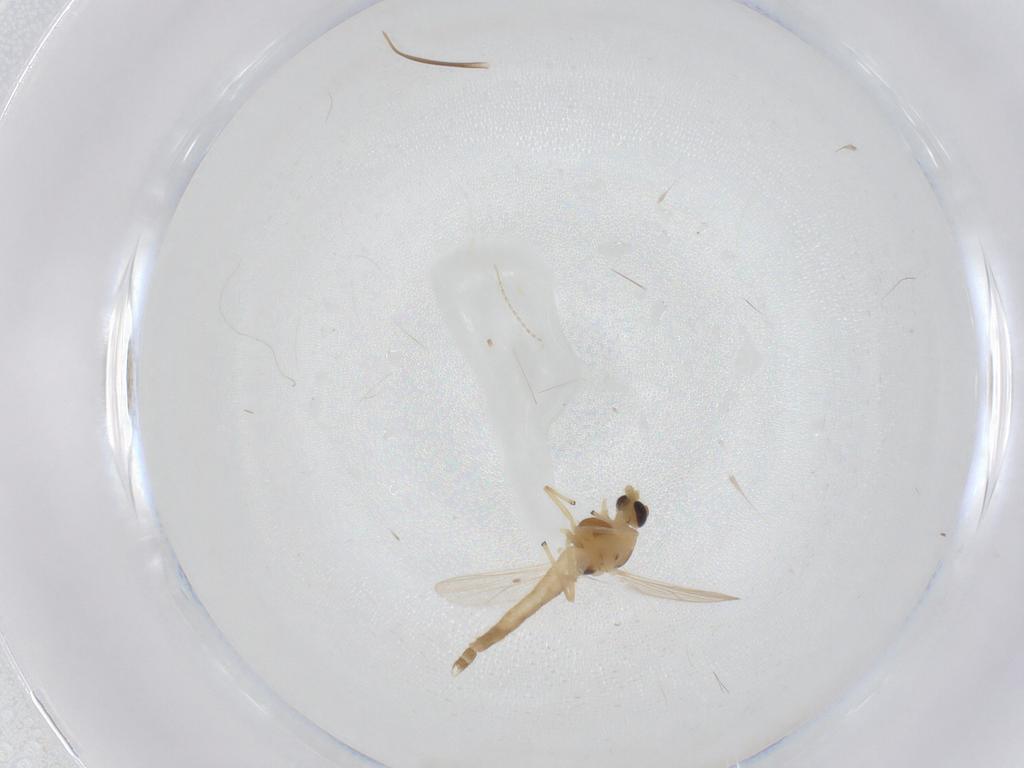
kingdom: Animalia
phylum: Arthropoda
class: Insecta
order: Diptera
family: Chironomidae
